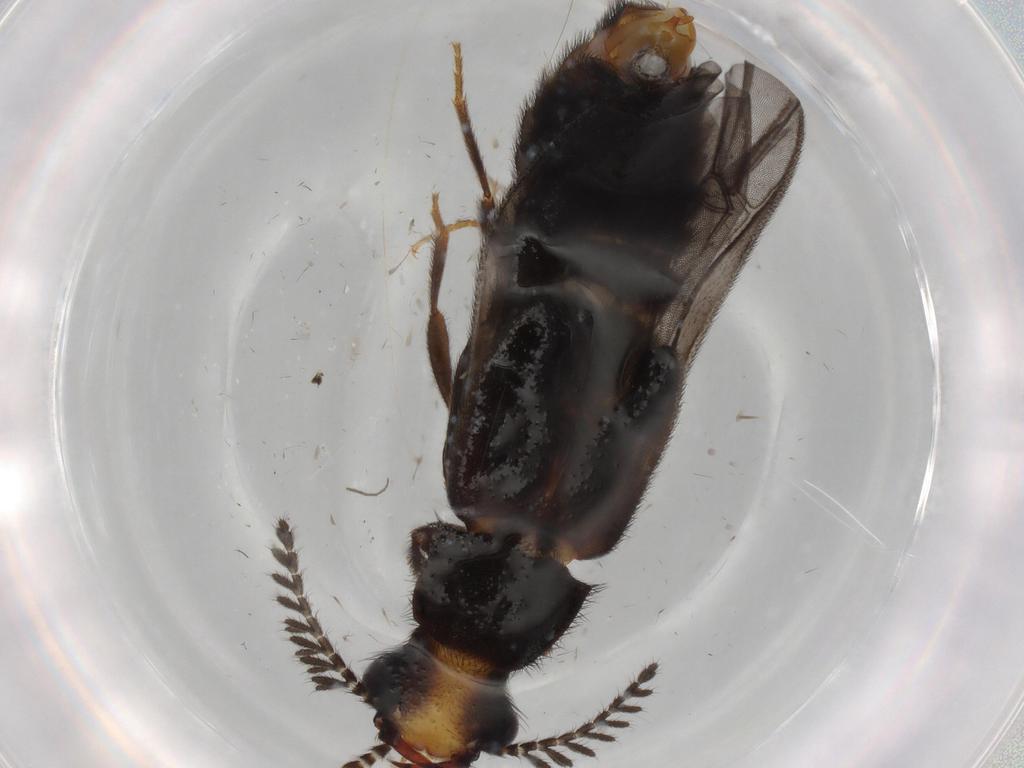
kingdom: Animalia
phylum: Arthropoda
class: Insecta
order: Coleoptera
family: Phengodidae
